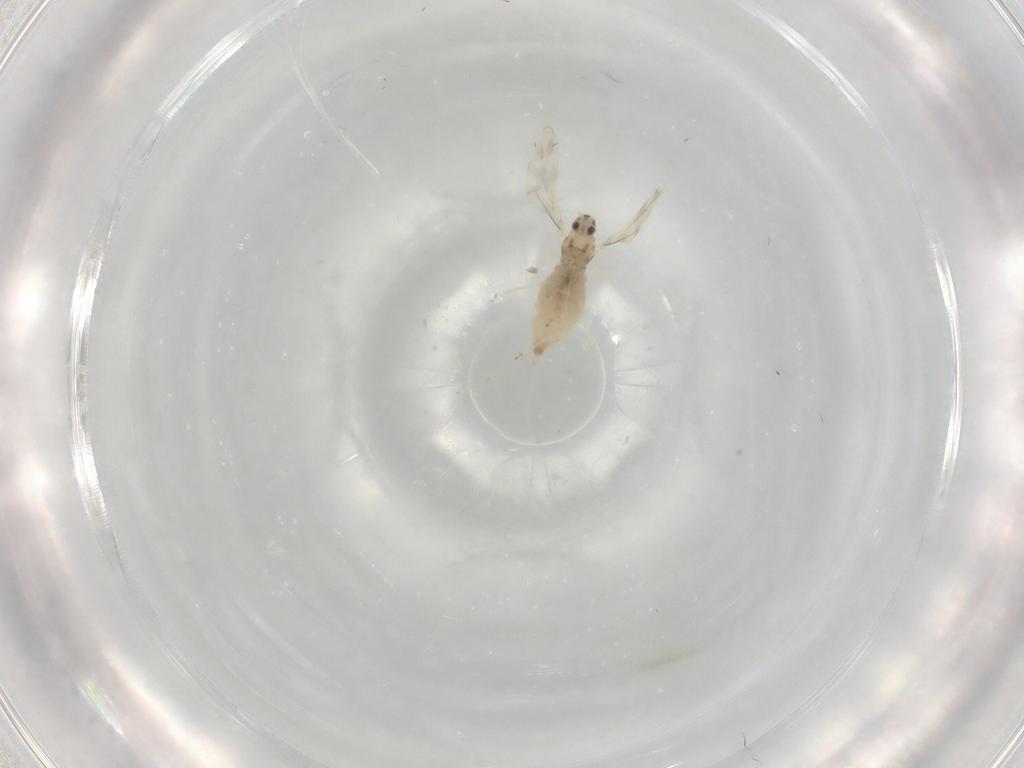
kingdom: Animalia
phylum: Arthropoda
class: Insecta
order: Diptera
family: Cecidomyiidae
